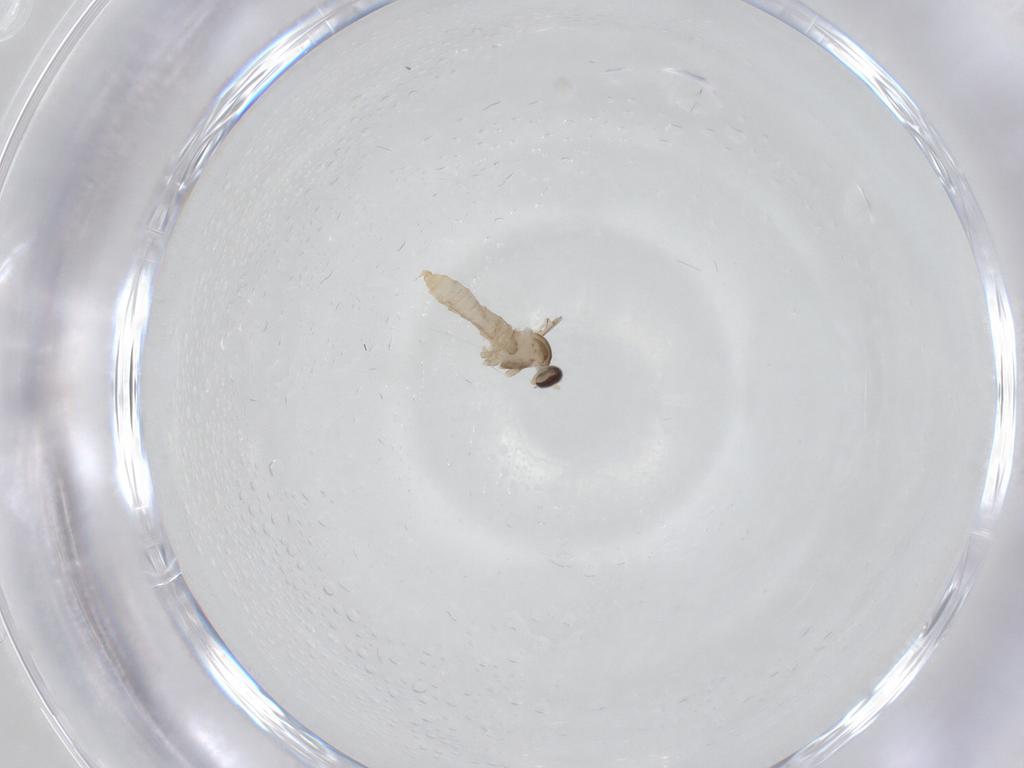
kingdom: Animalia
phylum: Arthropoda
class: Insecta
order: Diptera
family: Cecidomyiidae
